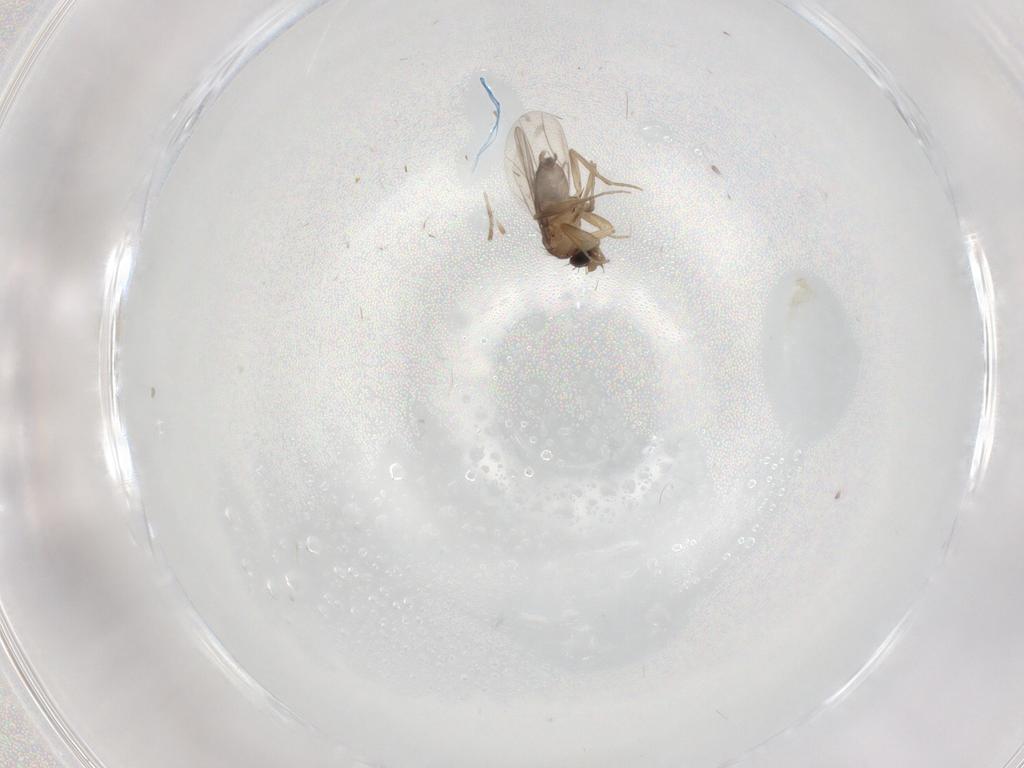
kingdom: Animalia
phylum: Arthropoda
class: Insecta
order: Diptera
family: Phoridae
